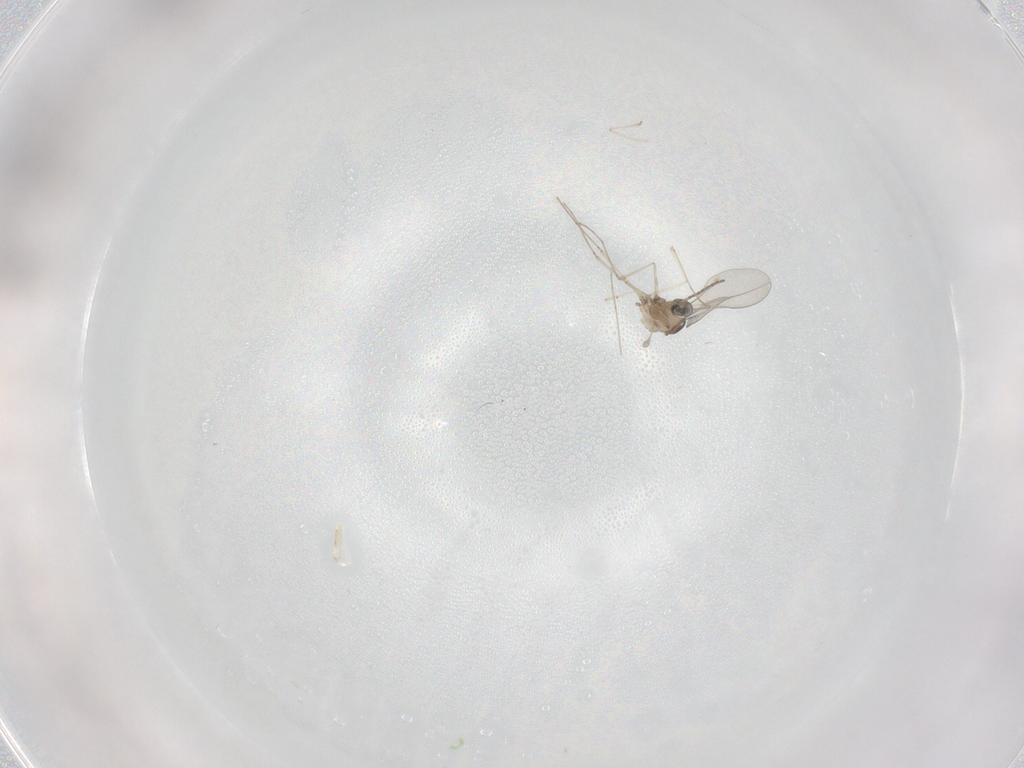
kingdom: Animalia
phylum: Arthropoda
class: Insecta
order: Diptera
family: Cecidomyiidae
